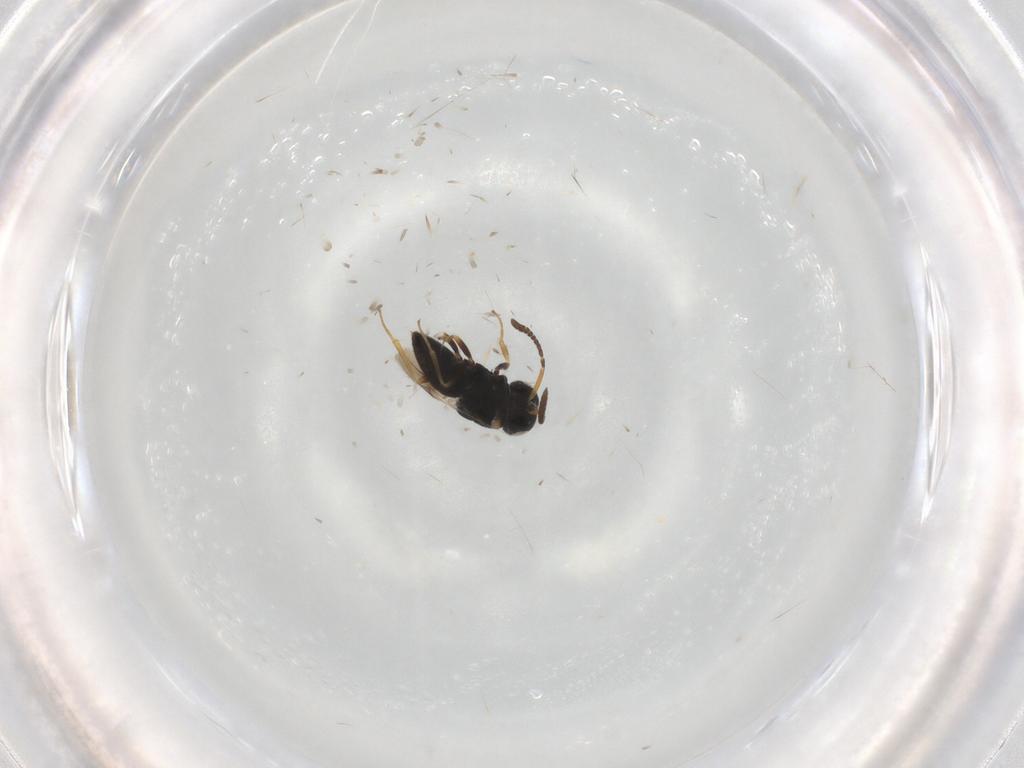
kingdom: Animalia
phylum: Arthropoda
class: Insecta
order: Hymenoptera
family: Scelionidae
